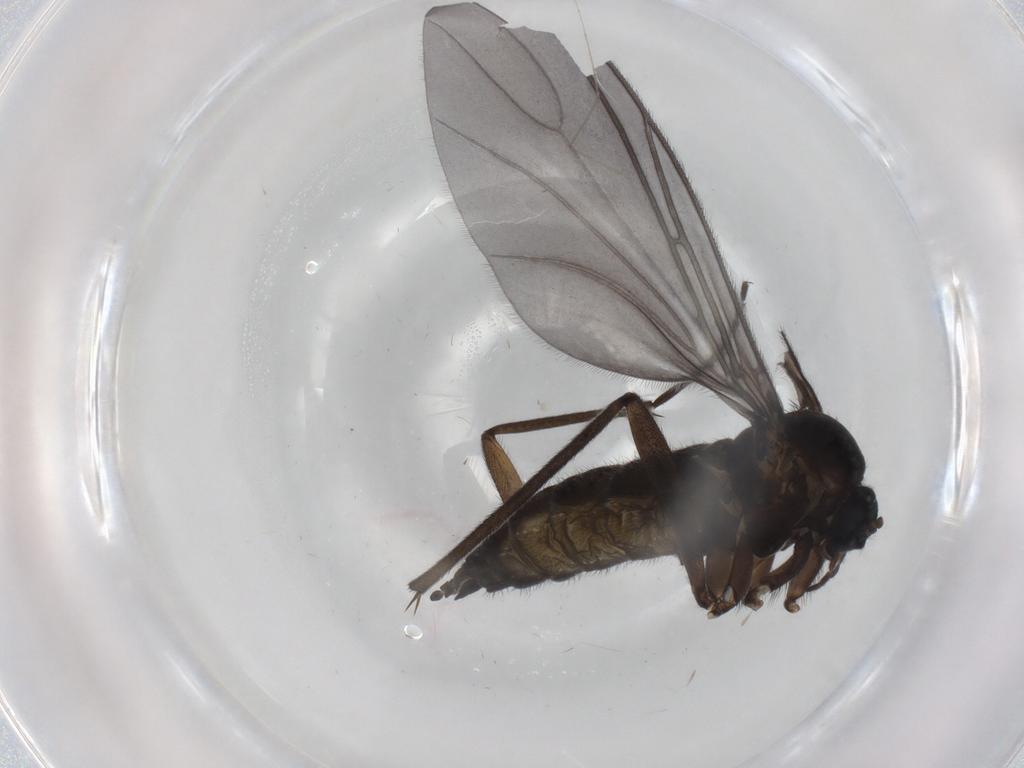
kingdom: Animalia
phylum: Arthropoda
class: Insecta
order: Diptera
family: Sciaridae
